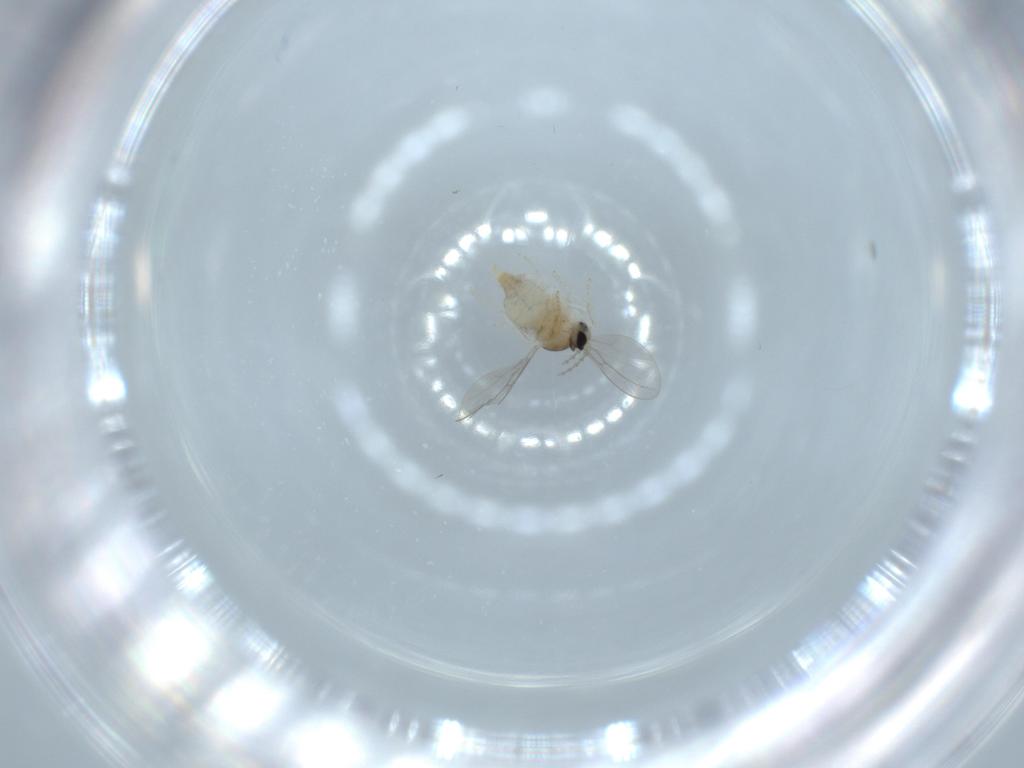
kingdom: Animalia
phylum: Arthropoda
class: Insecta
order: Diptera
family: Cecidomyiidae
